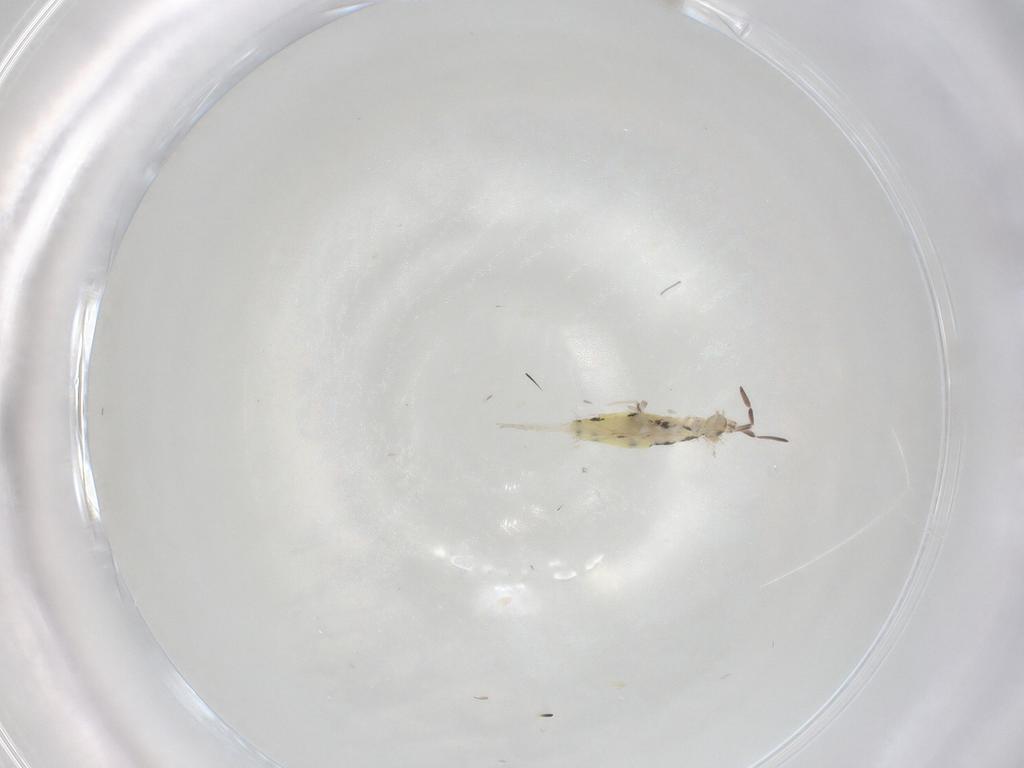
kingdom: Animalia
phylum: Arthropoda
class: Collembola
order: Entomobryomorpha
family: Entomobryidae
